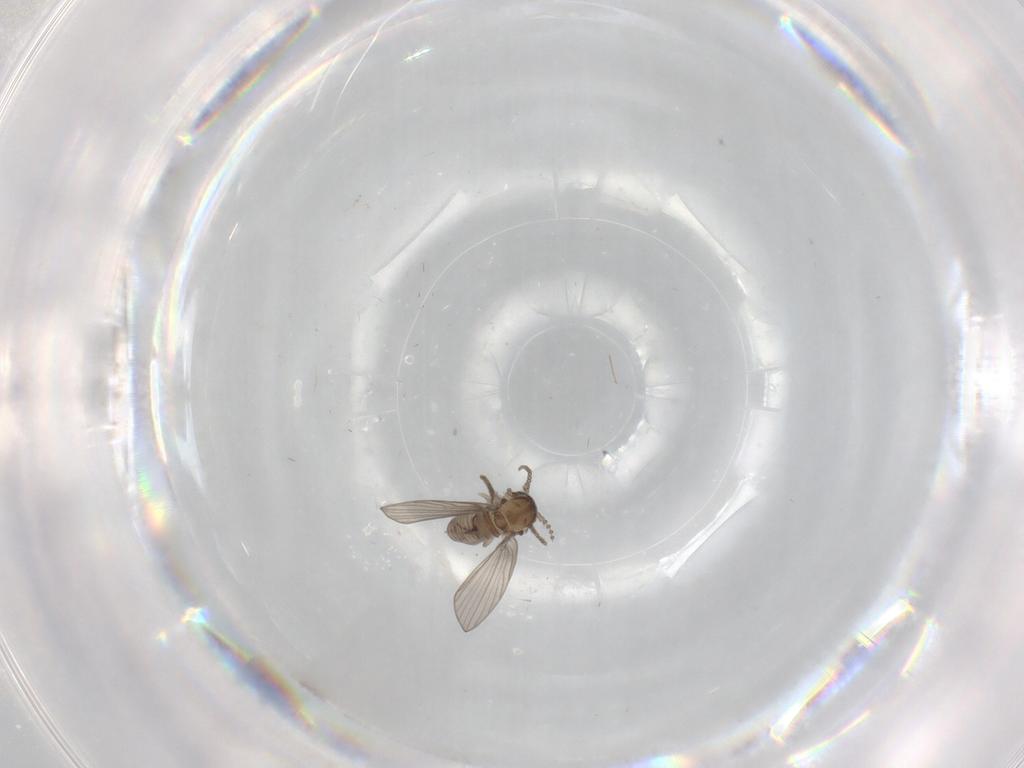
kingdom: Animalia
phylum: Arthropoda
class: Insecta
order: Diptera
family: Psychodidae
